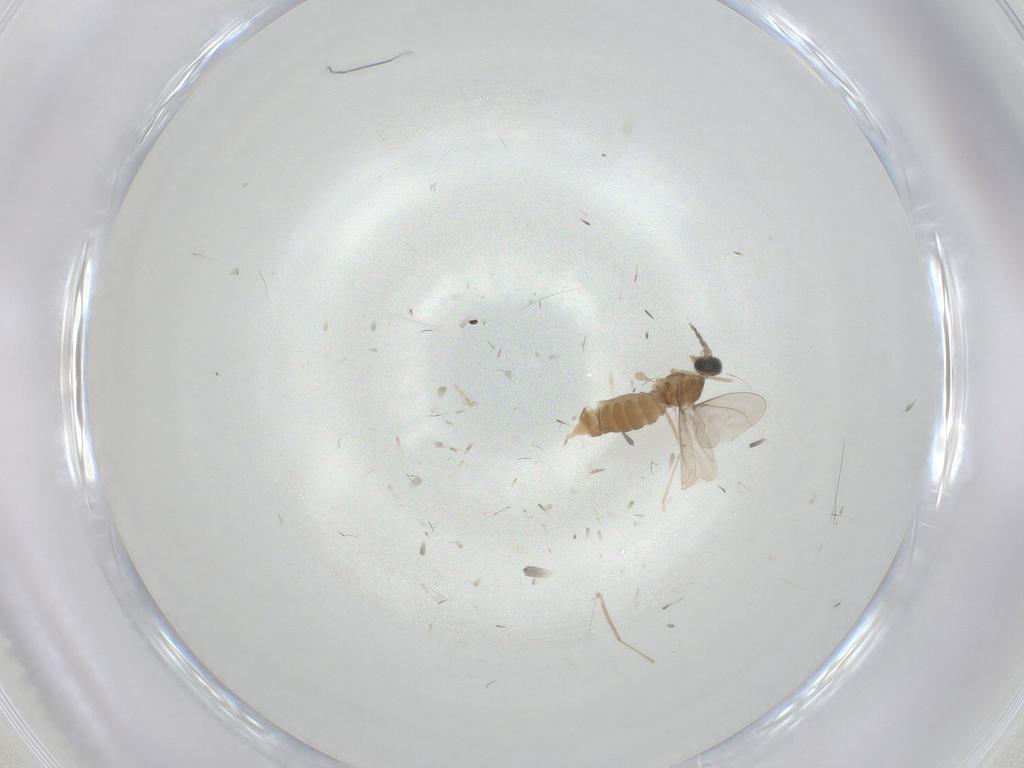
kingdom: Animalia
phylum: Arthropoda
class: Insecta
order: Diptera
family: Cecidomyiidae
